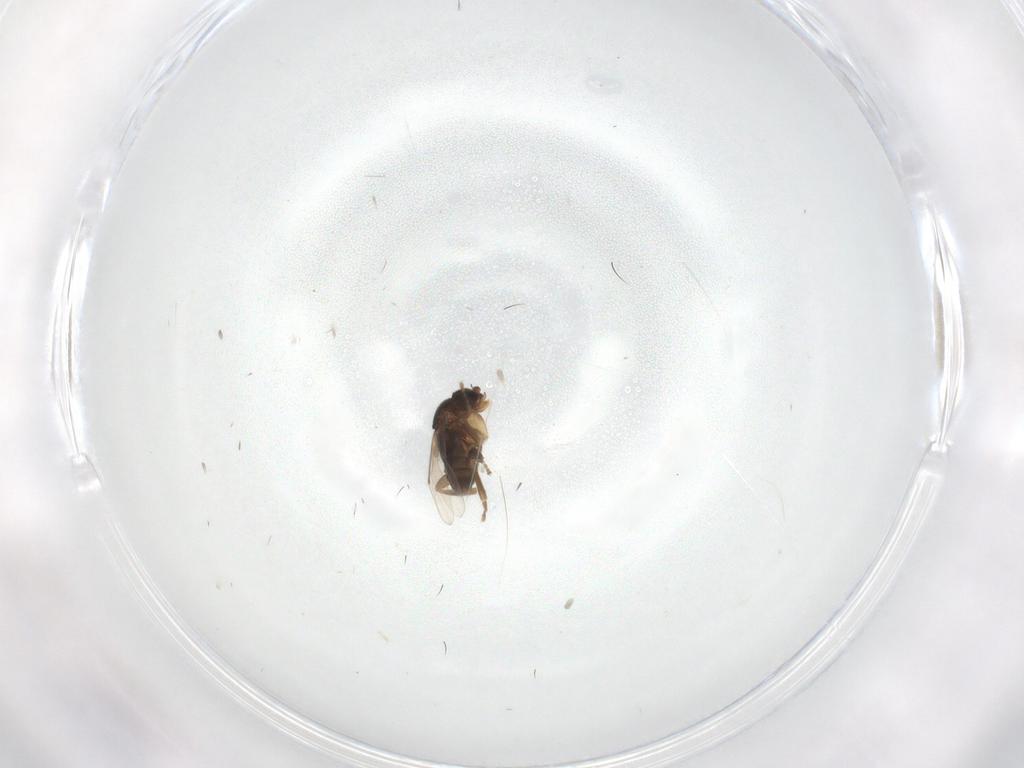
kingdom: Animalia
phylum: Arthropoda
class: Insecta
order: Diptera
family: Phoridae
